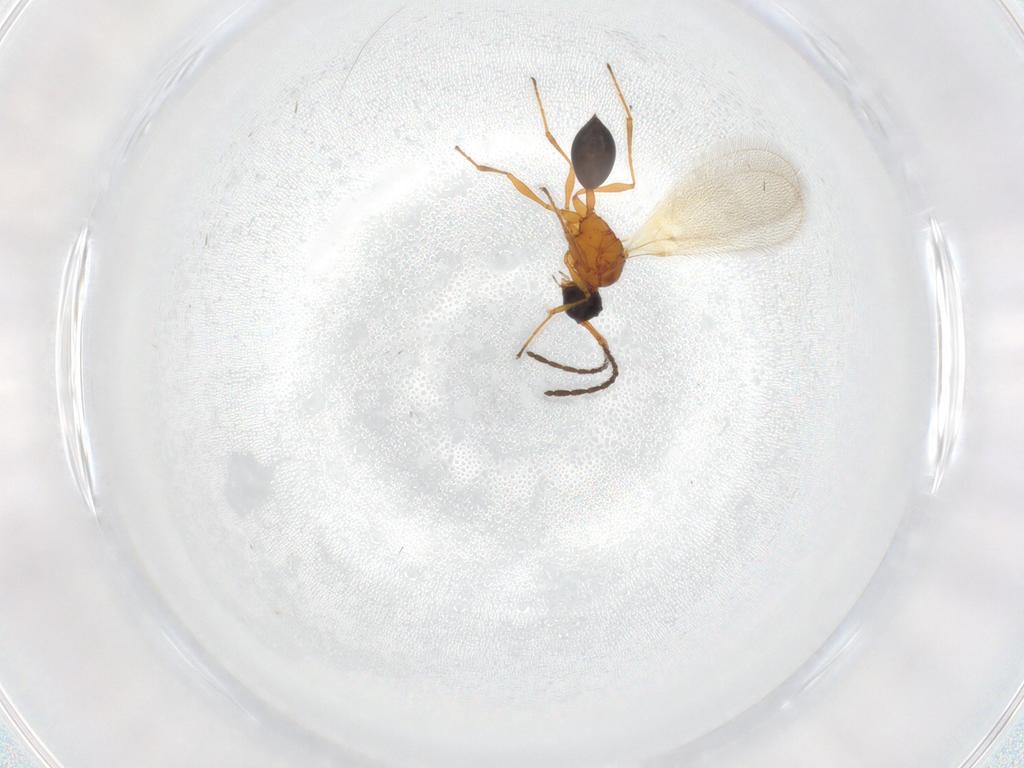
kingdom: Animalia
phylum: Arthropoda
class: Insecta
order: Hymenoptera
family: Diapriidae
